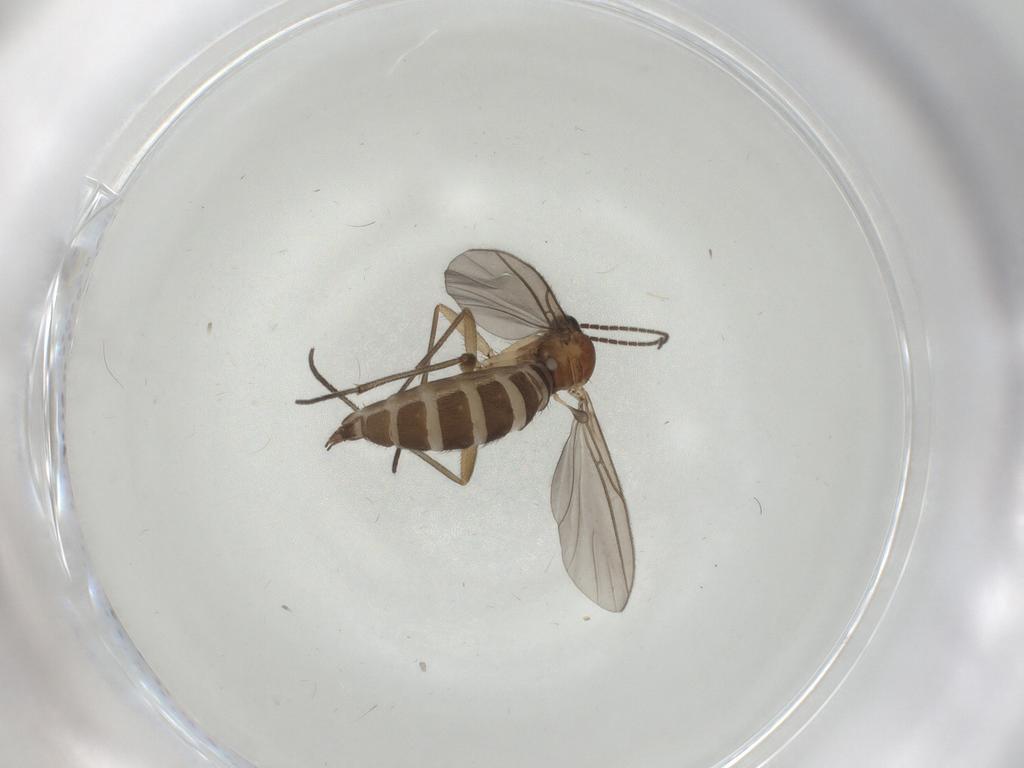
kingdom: Animalia
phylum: Arthropoda
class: Insecta
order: Diptera
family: Sciaridae
